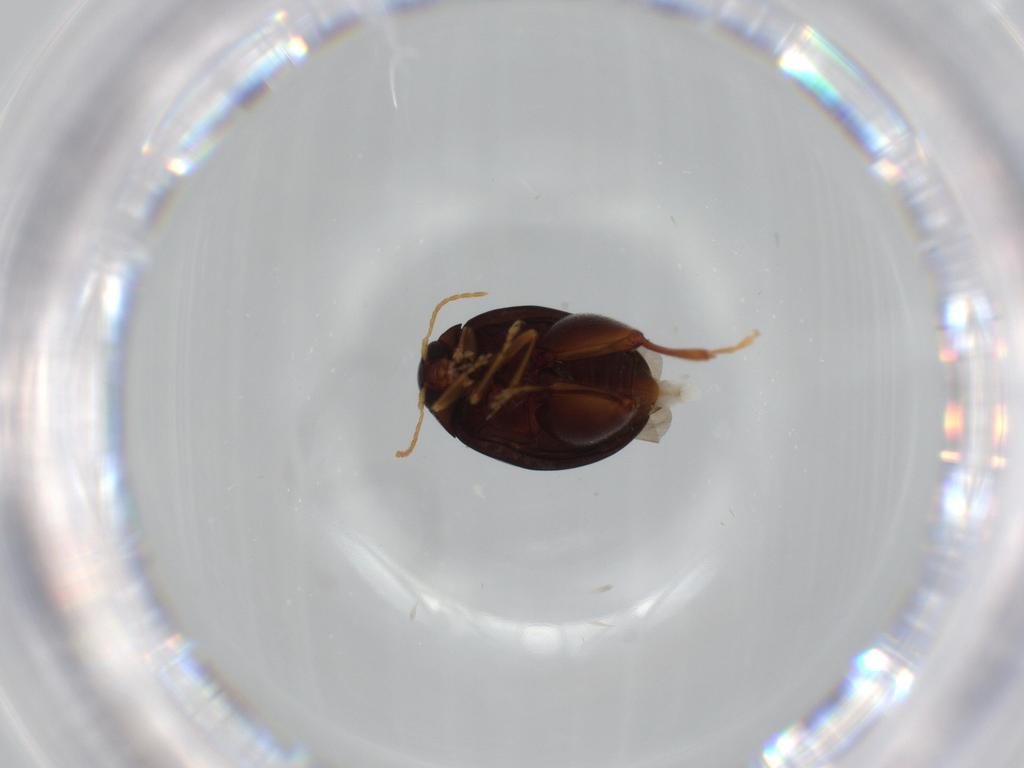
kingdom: Animalia
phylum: Arthropoda
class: Insecta
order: Coleoptera
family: Chrysomelidae
